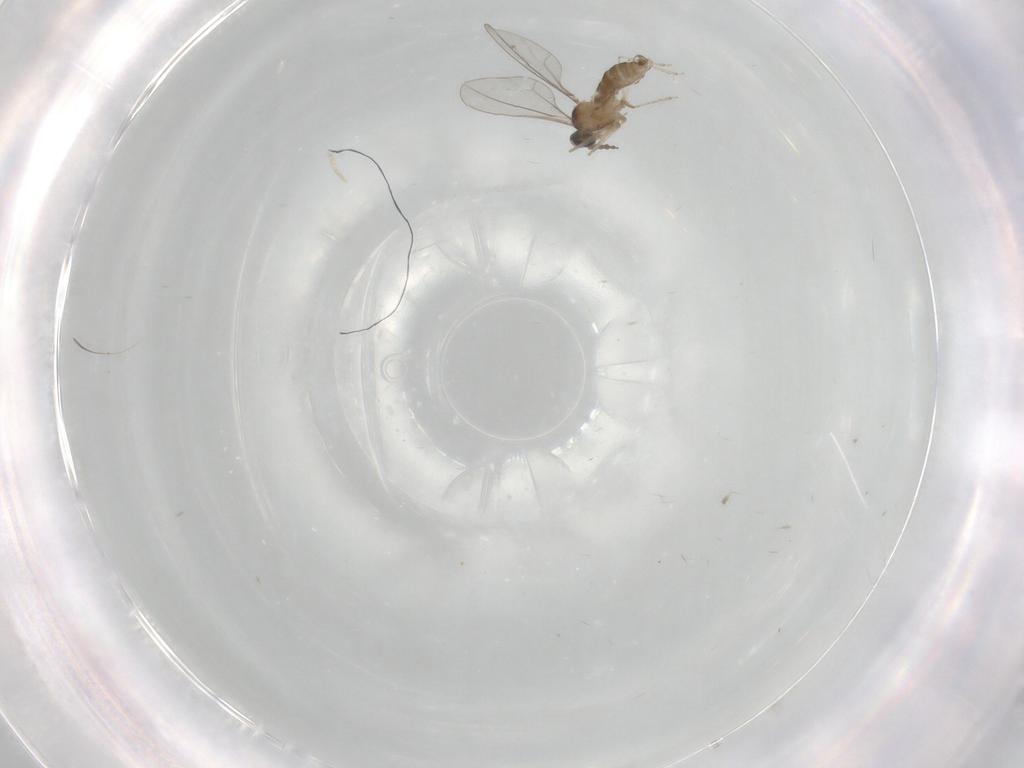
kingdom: Animalia
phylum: Arthropoda
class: Insecta
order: Diptera
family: Cecidomyiidae
